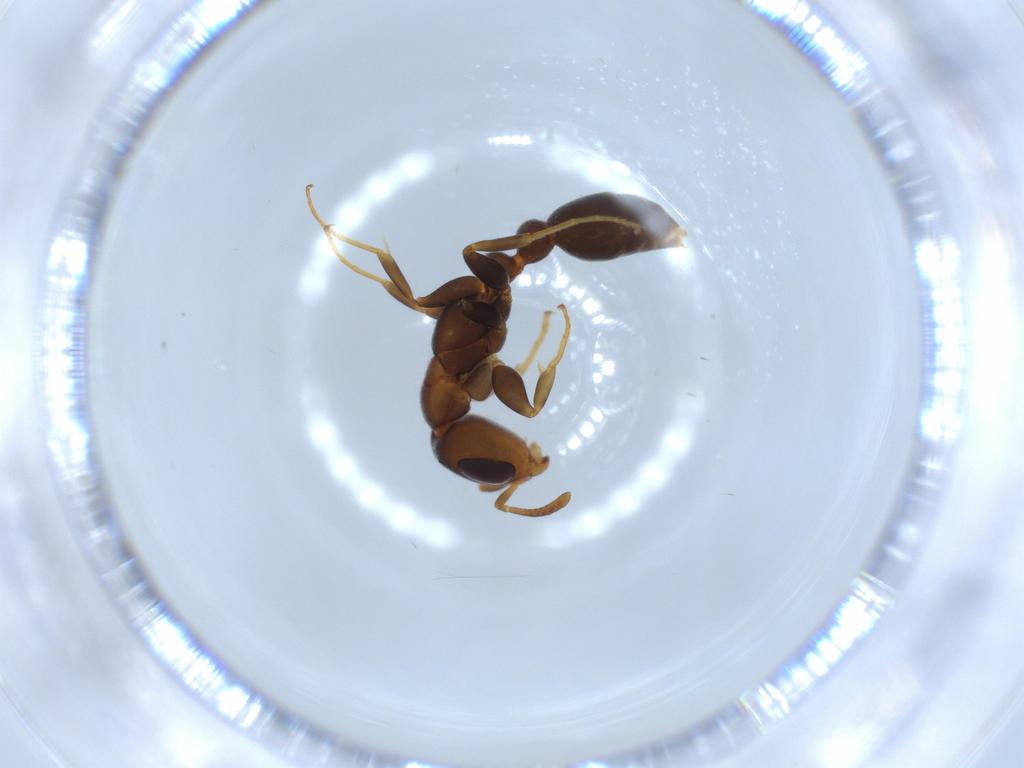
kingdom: Animalia
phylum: Arthropoda
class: Insecta
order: Hymenoptera
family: Formicidae
